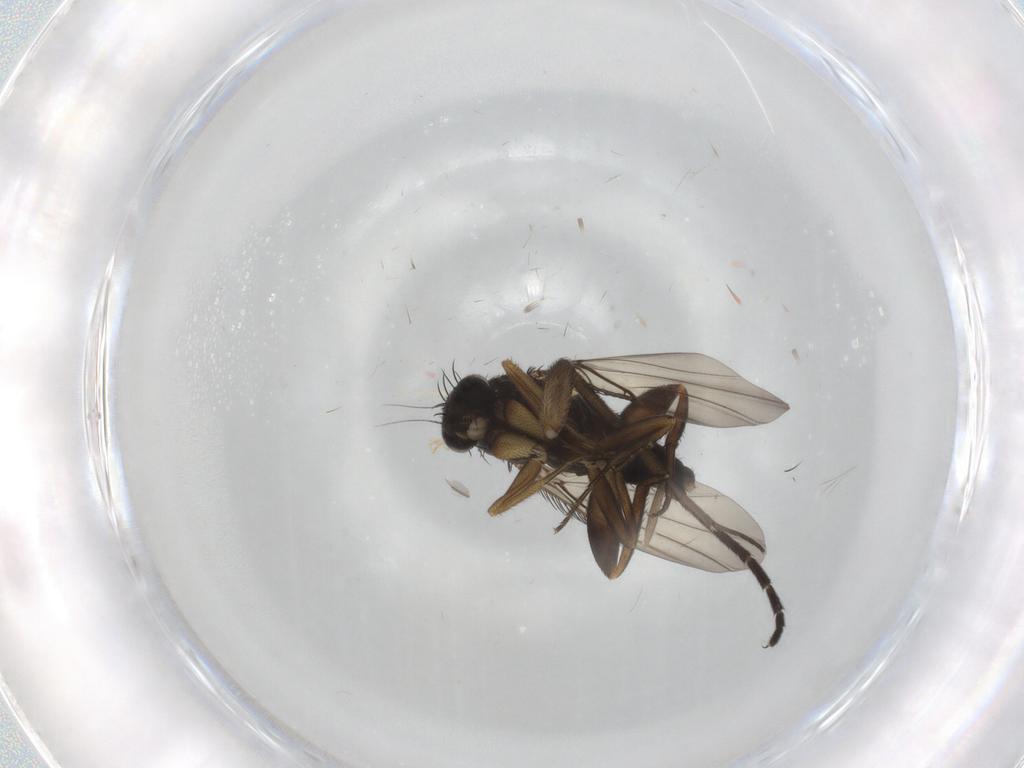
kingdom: Animalia
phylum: Arthropoda
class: Insecta
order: Diptera
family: Phoridae
